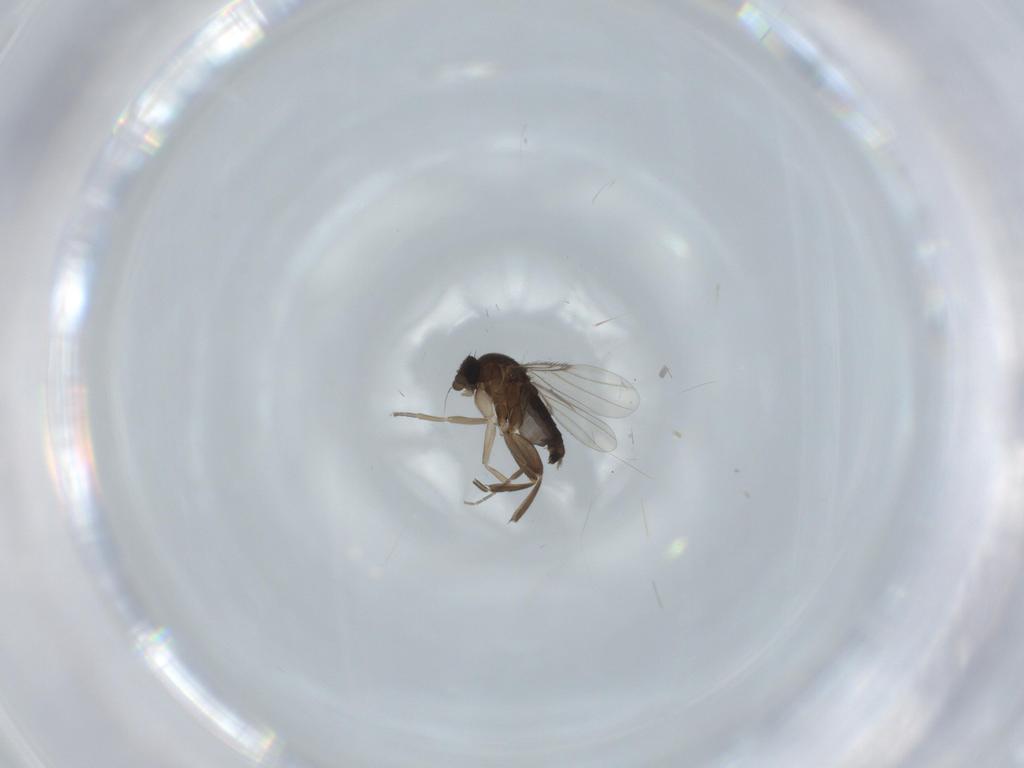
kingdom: Animalia
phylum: Arthropoda
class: Insecta
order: Diptera
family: Phoridae
